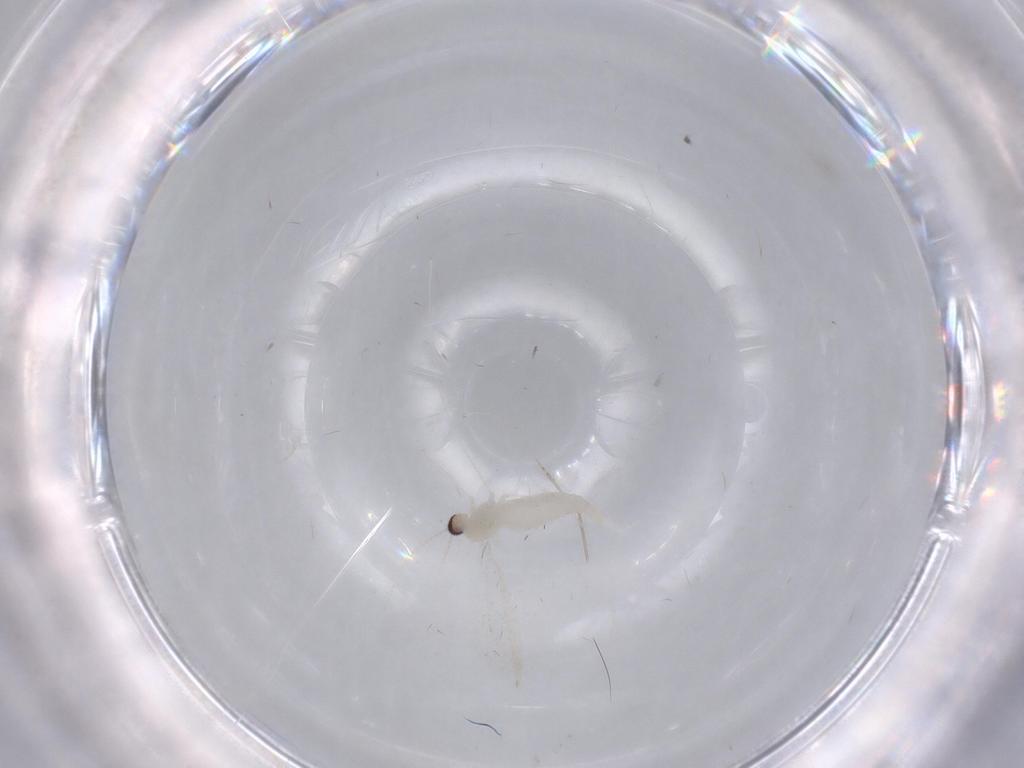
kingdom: Animalia
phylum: Arthropoda
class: Insecta
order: Diptera
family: Cecidomyiidae
